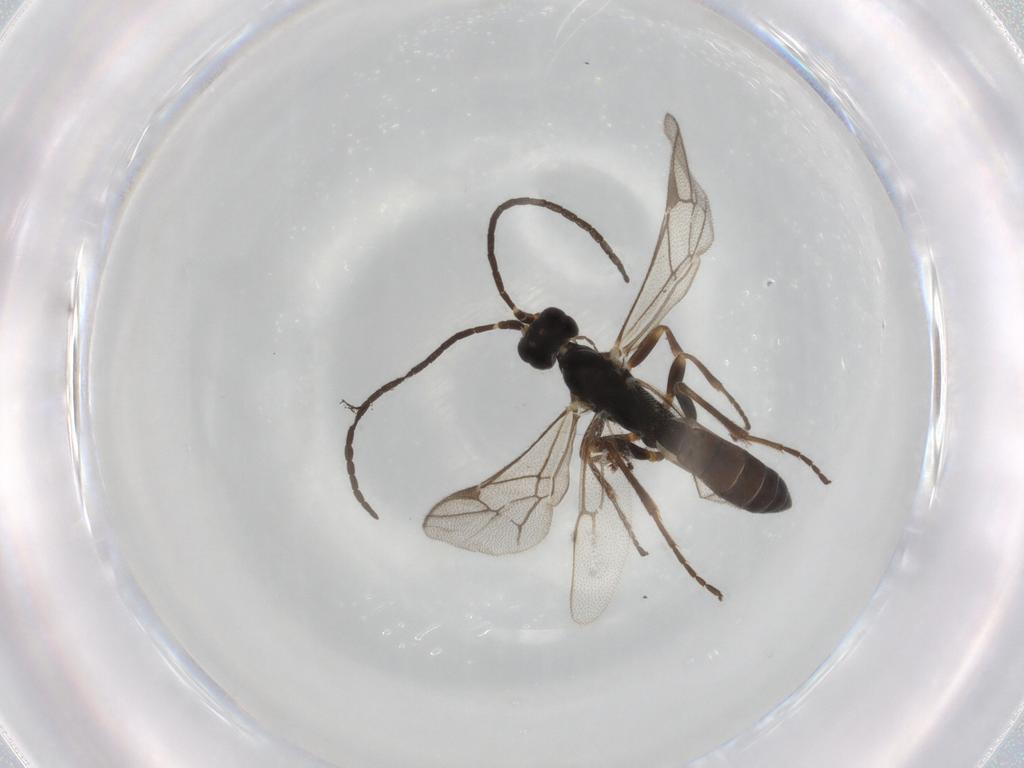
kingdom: Animalia
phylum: Arthropoda
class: Insecta
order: Hymenoptera
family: Ichneumonidae
